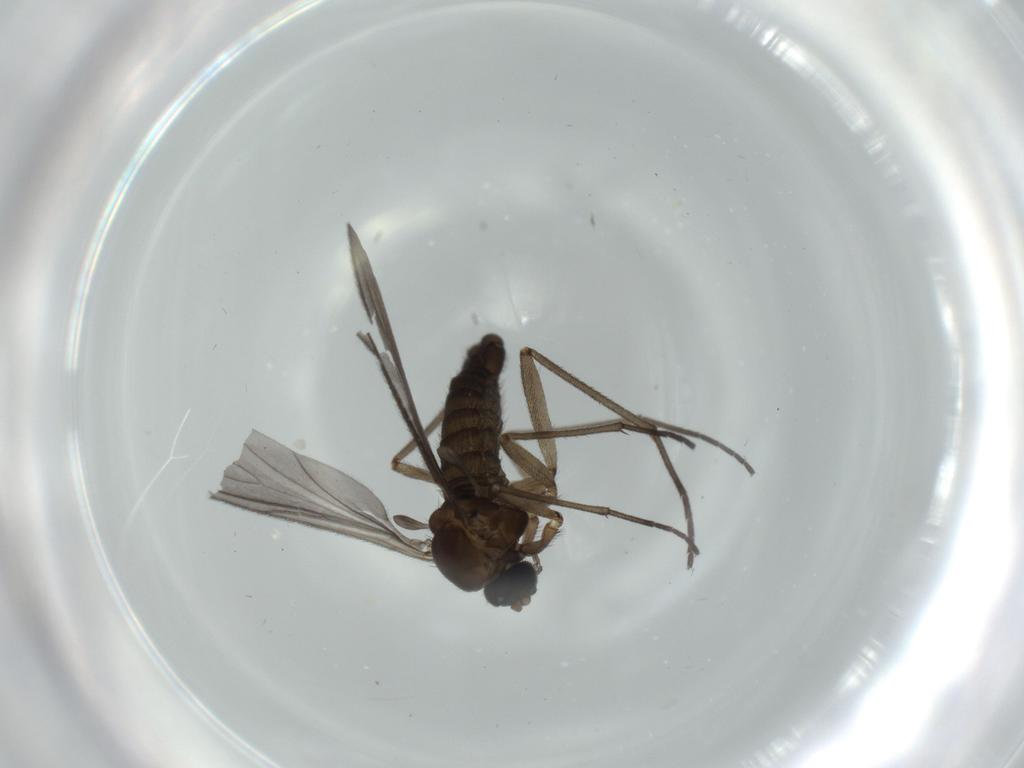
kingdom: Animalia
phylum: Arthropoda
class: Insecta
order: Diptera
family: Sciaridae
